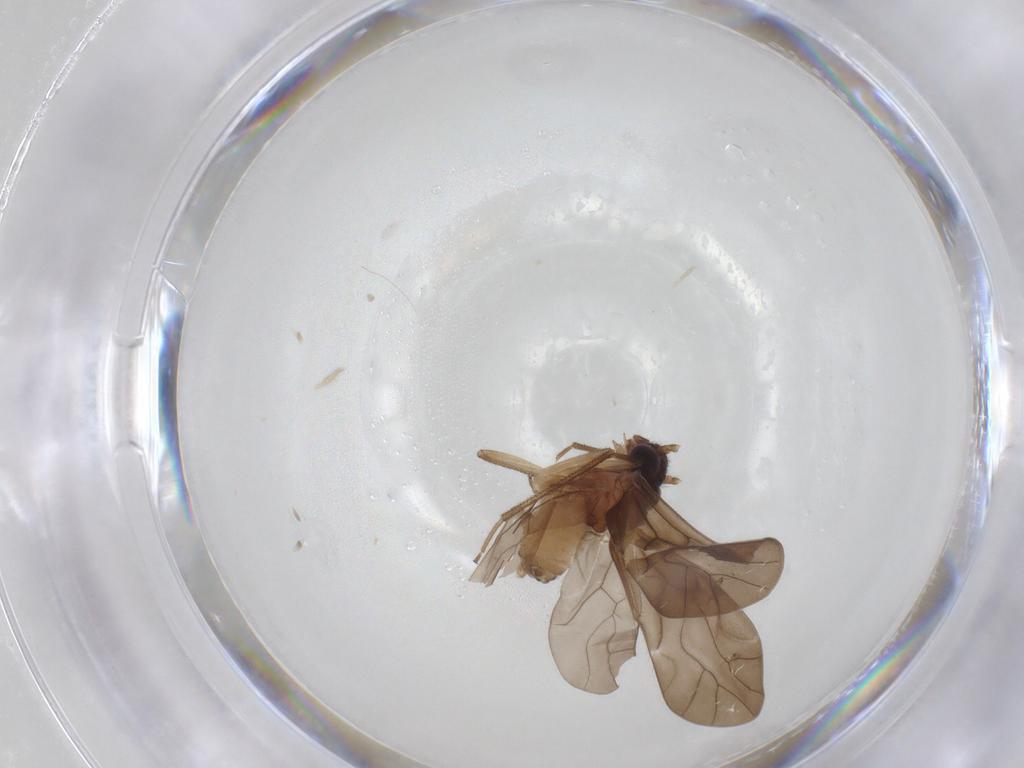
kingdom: Animalia
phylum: Arthropoda
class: Insecta
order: Psocodea
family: Caeciliusidae
